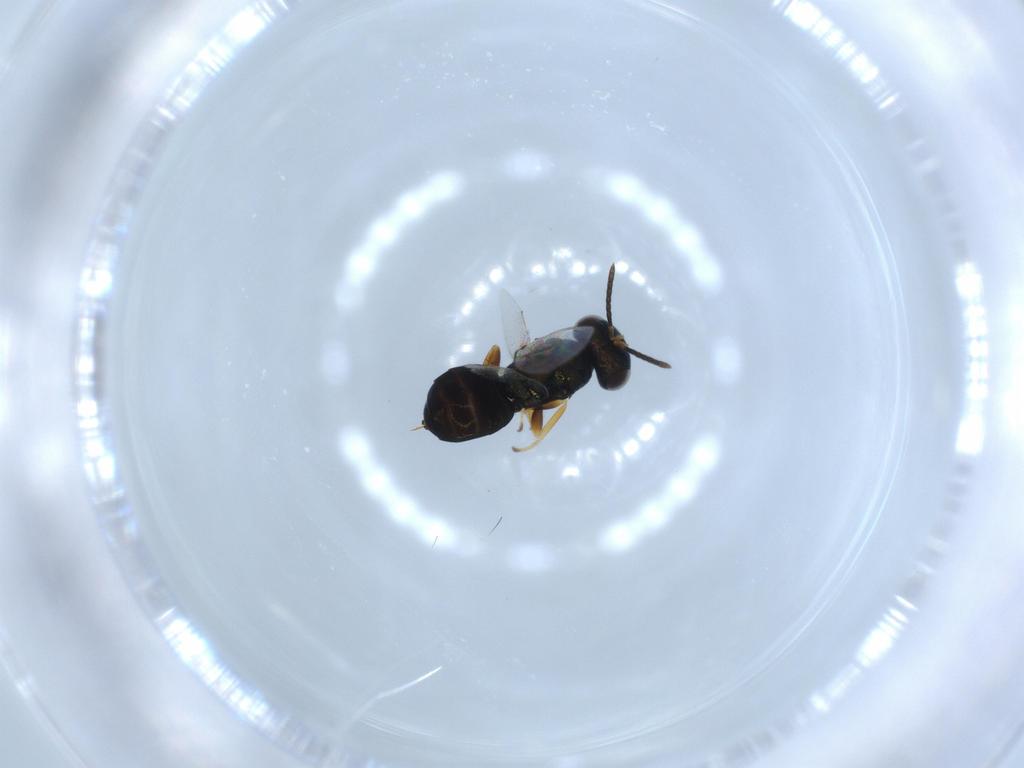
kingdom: Animalia
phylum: Arthropoda
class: Insecta
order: Hymenoptera
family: Pteromalidae
